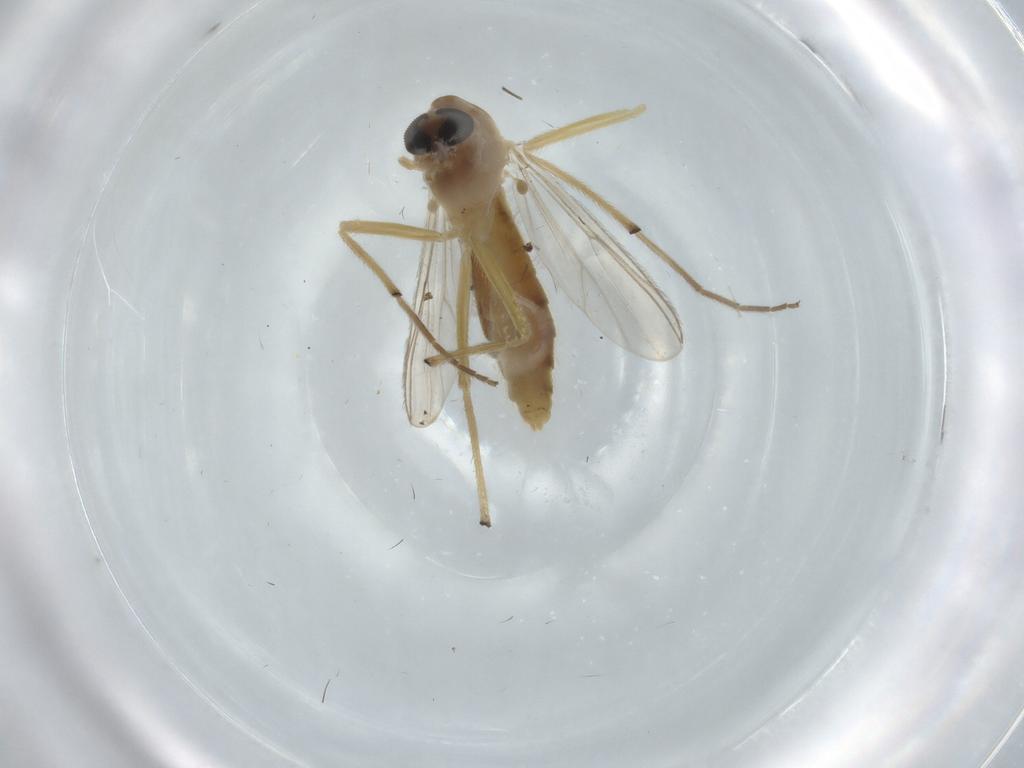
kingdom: Animalia
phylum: Arthropoda
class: Insecta
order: Diptera
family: Chironomidae
